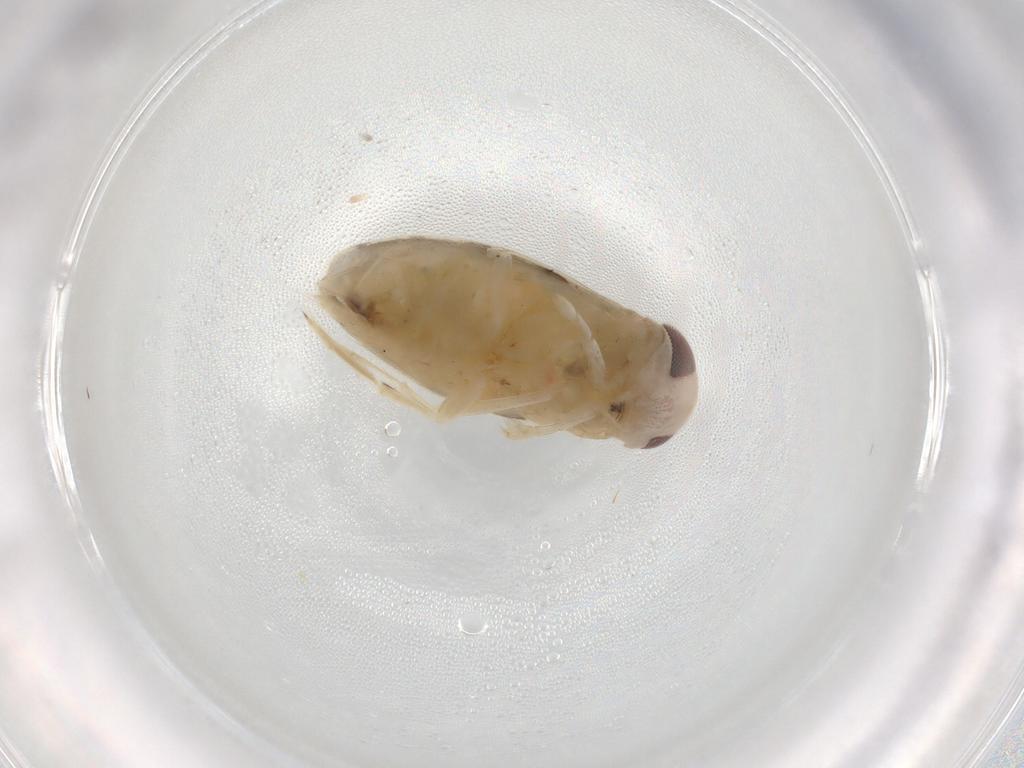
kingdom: Animalia
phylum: Arthropoda
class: Insecta
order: Hemiptera
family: Corixidae
